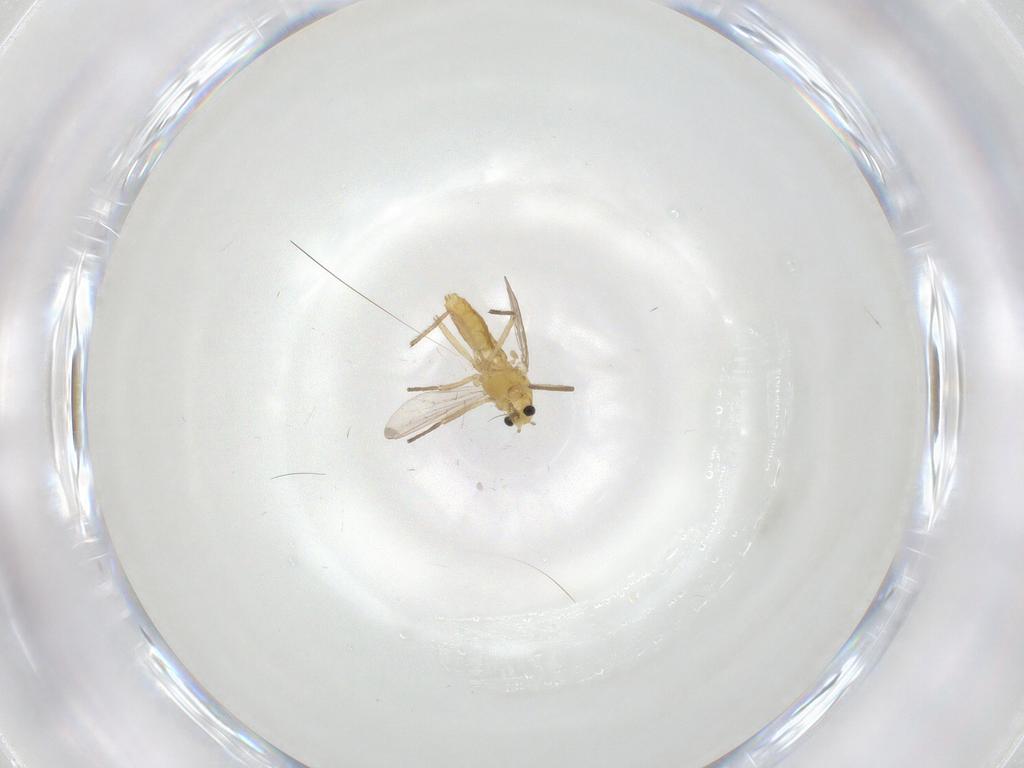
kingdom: Animalia
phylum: Arthropoda
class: Insecta
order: Diptera
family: Chironomidae
